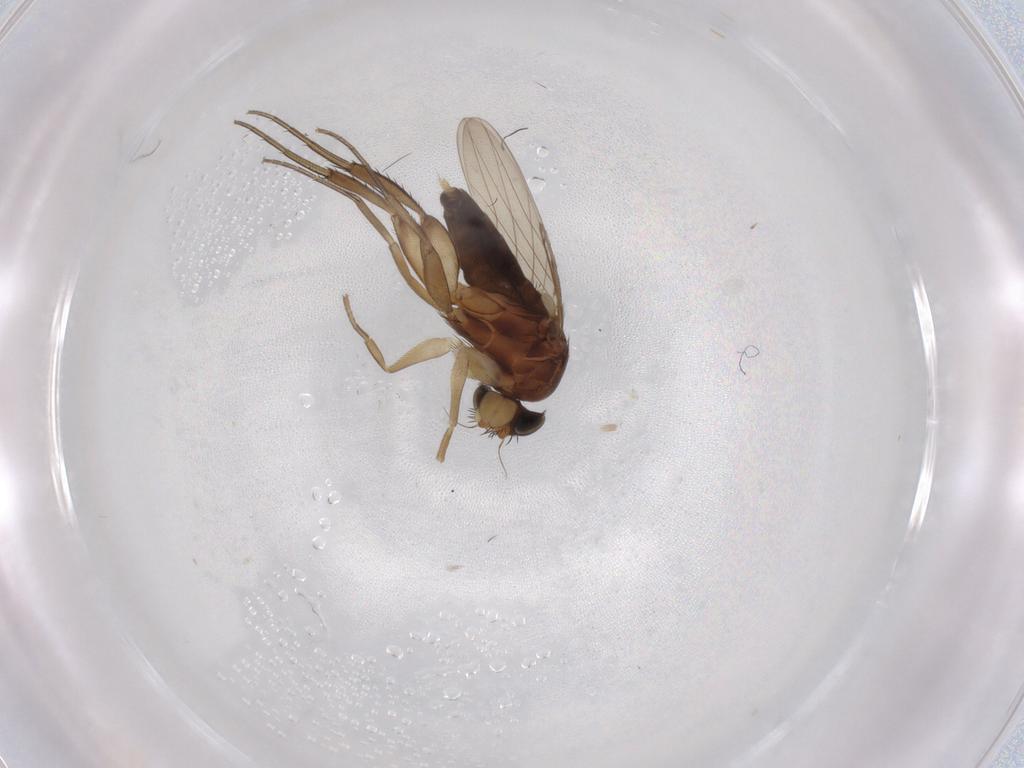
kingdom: Animalia
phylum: Arthropoda
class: Insecta
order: Diptera
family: Phoridae
